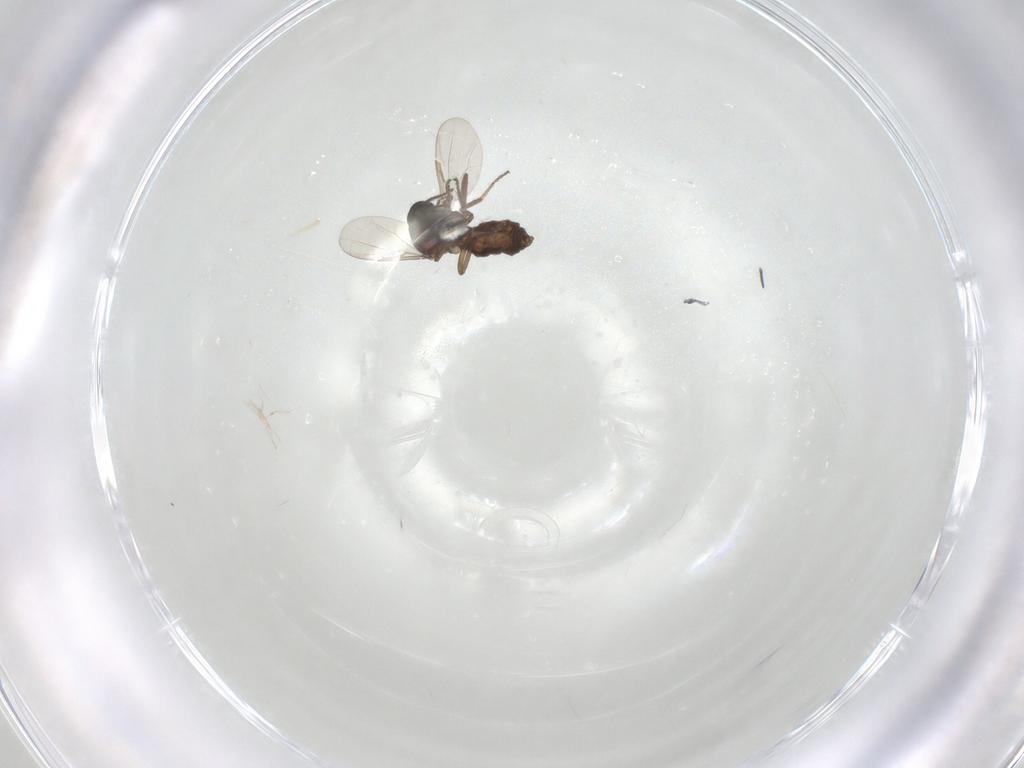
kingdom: Animalia
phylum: Arthropoda
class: Insecta
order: Diptera
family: Ceratopogonidae
